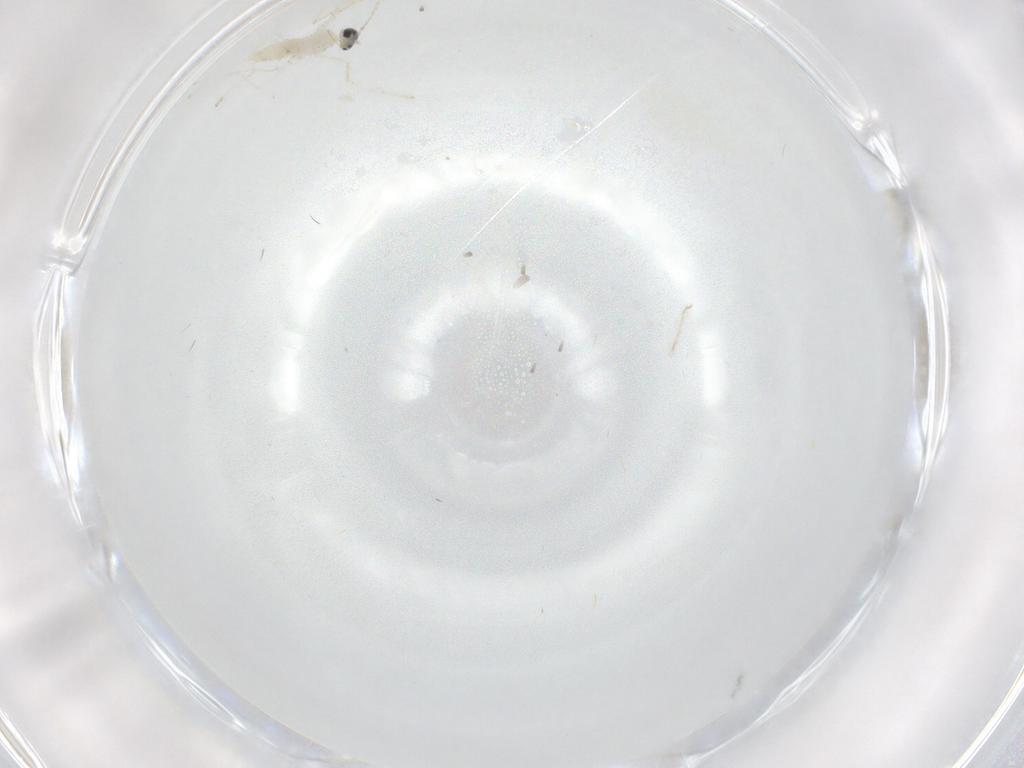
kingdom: Animalia
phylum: Arthropoda
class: Insecta
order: Diptera
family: Cecidomyiidae
